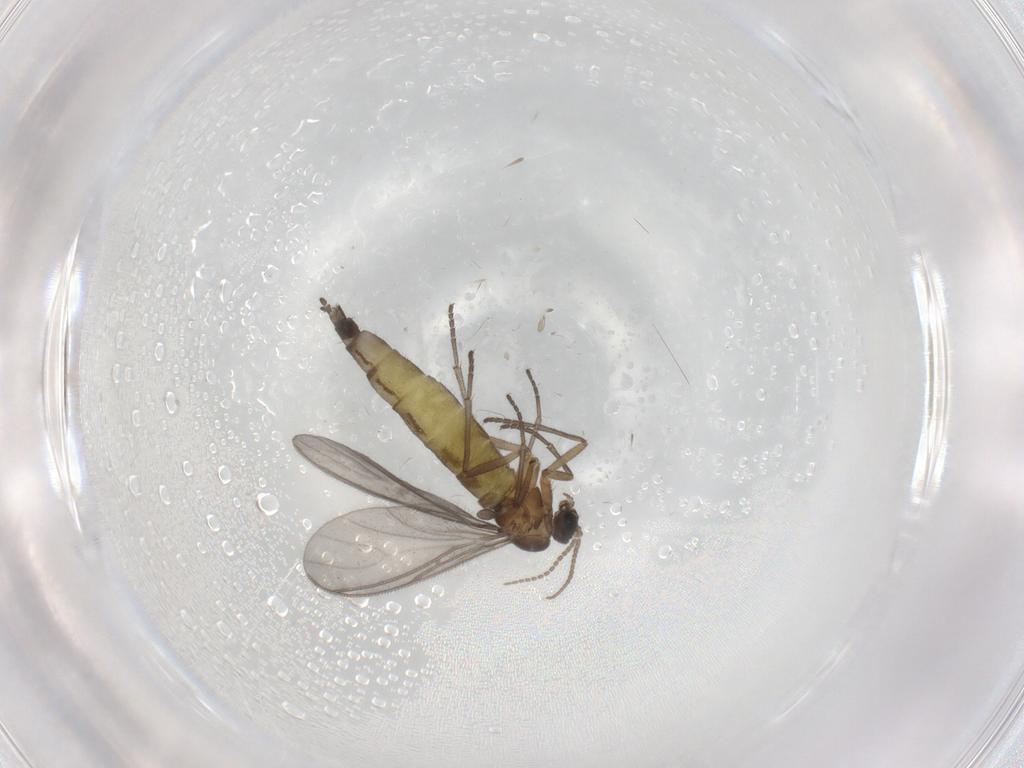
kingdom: Animalia
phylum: Arthropoda
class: Insecta
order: Diptera
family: Sciaridae
